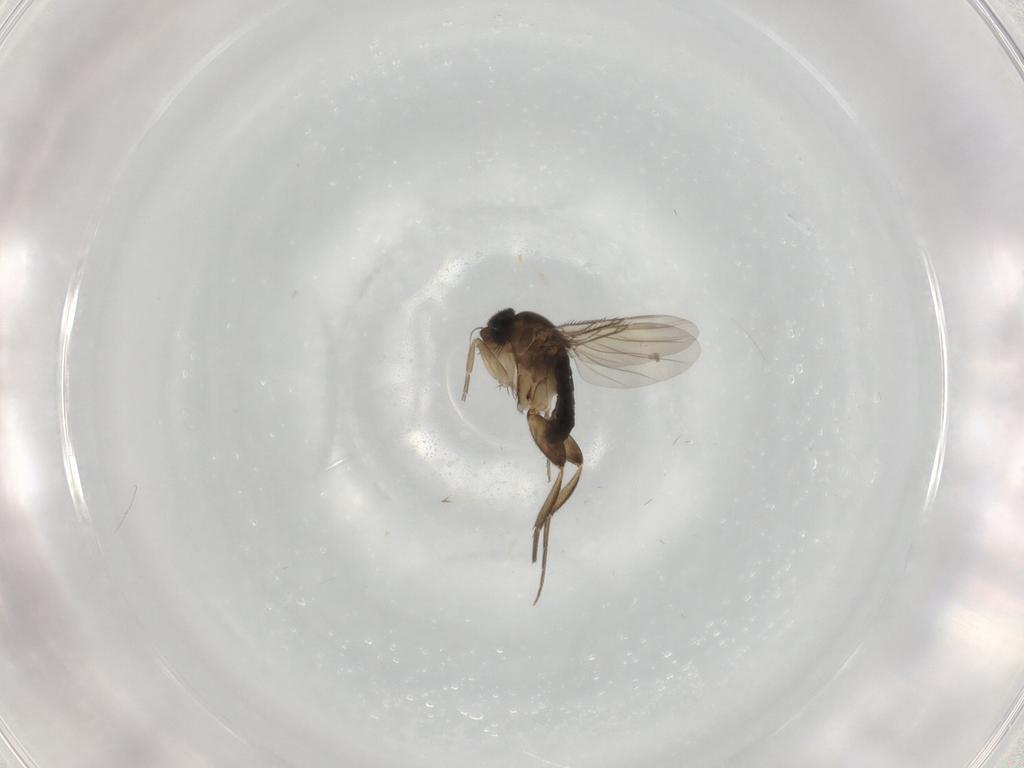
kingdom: Animalia
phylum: Arthropoda
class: Insecta
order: Diptera
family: Phoridae
